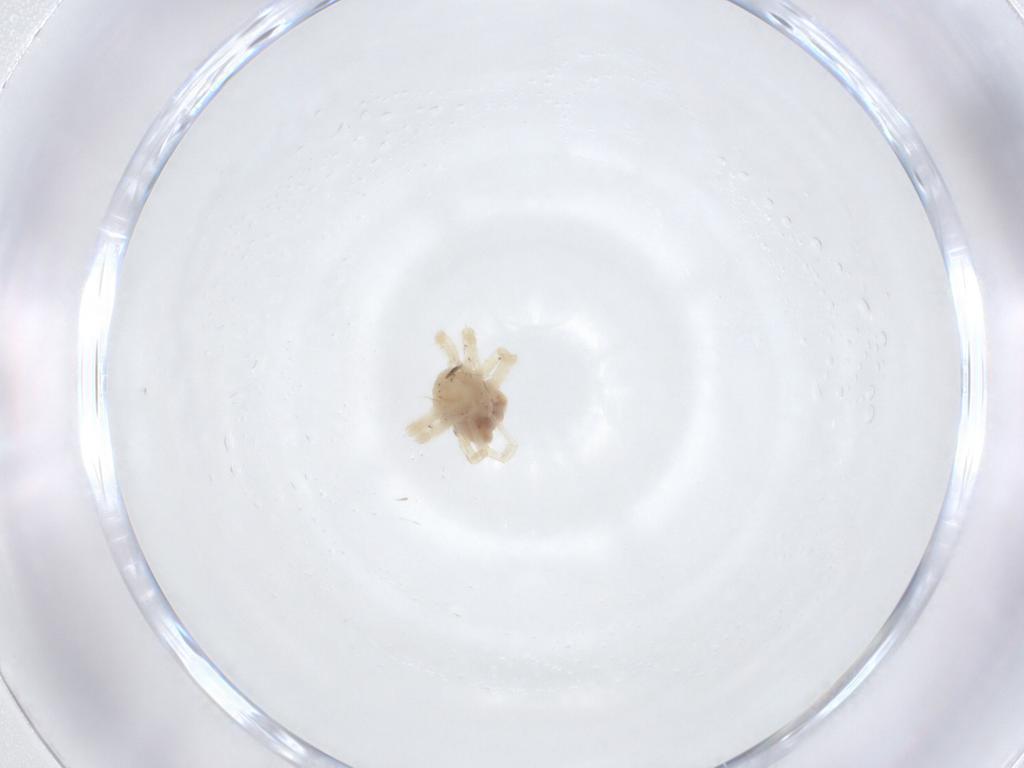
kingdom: Animalia
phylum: Arthropoda
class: Arachnida
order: Trombidiformes
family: Anystidae
